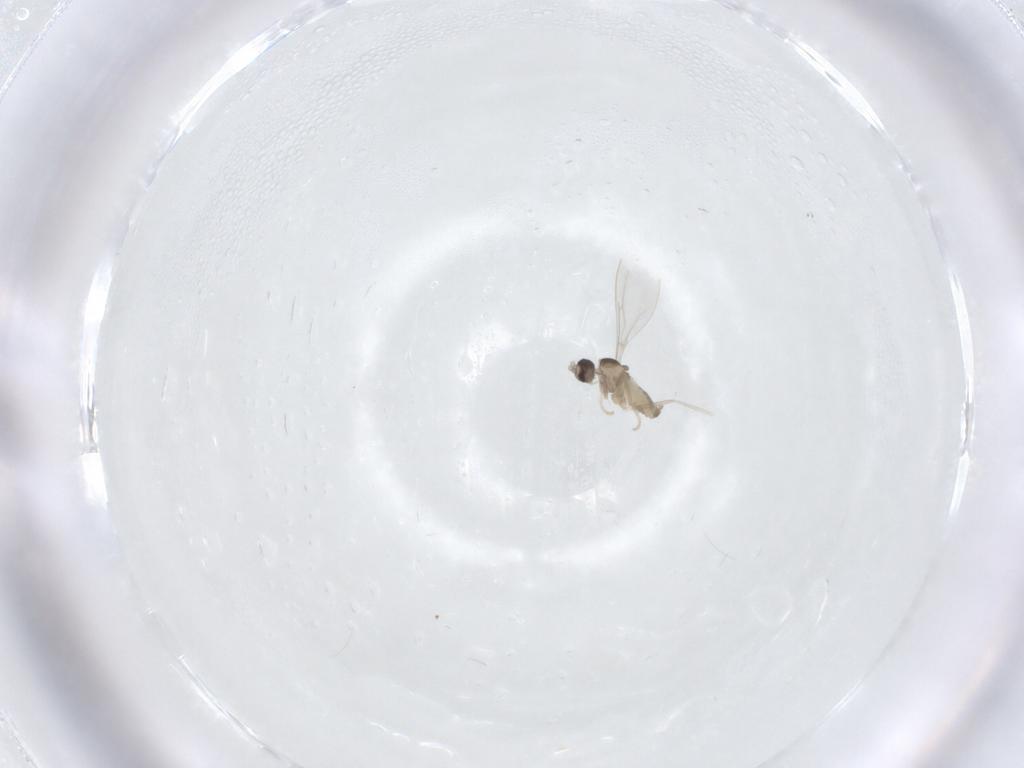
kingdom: Animalia
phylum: Arthropoda
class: Insecta
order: Diptera
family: Sciaridae
